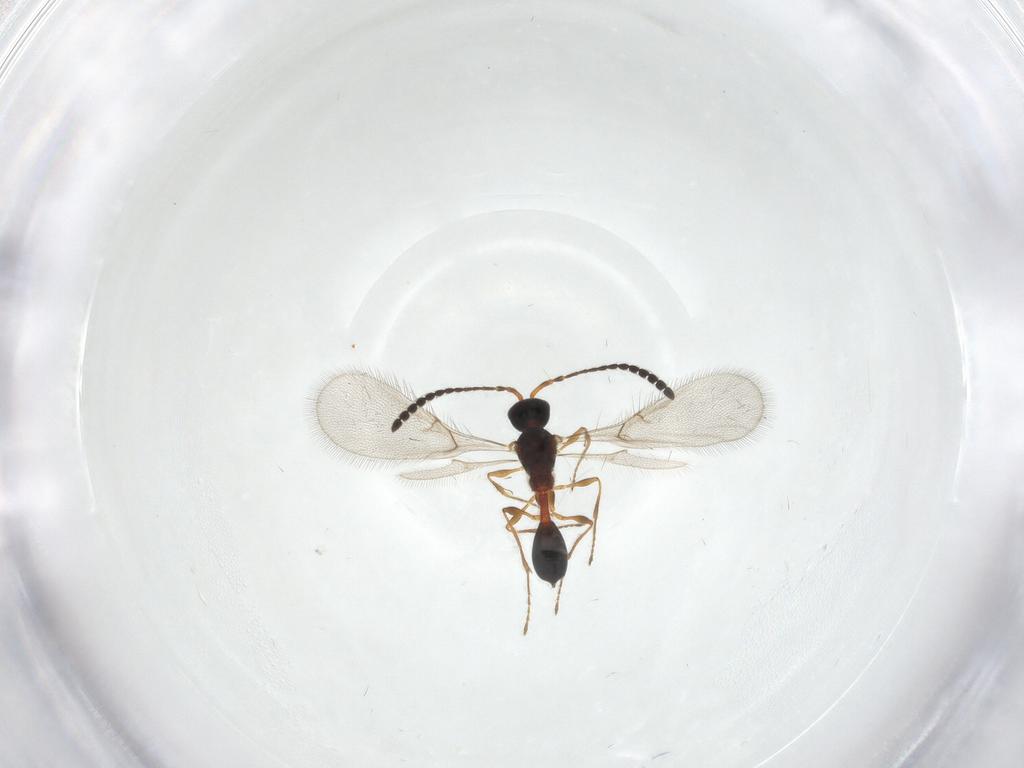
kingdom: Animalia
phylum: Arthropoda
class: Insecta
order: Hymenoptera
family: Diapriidae
